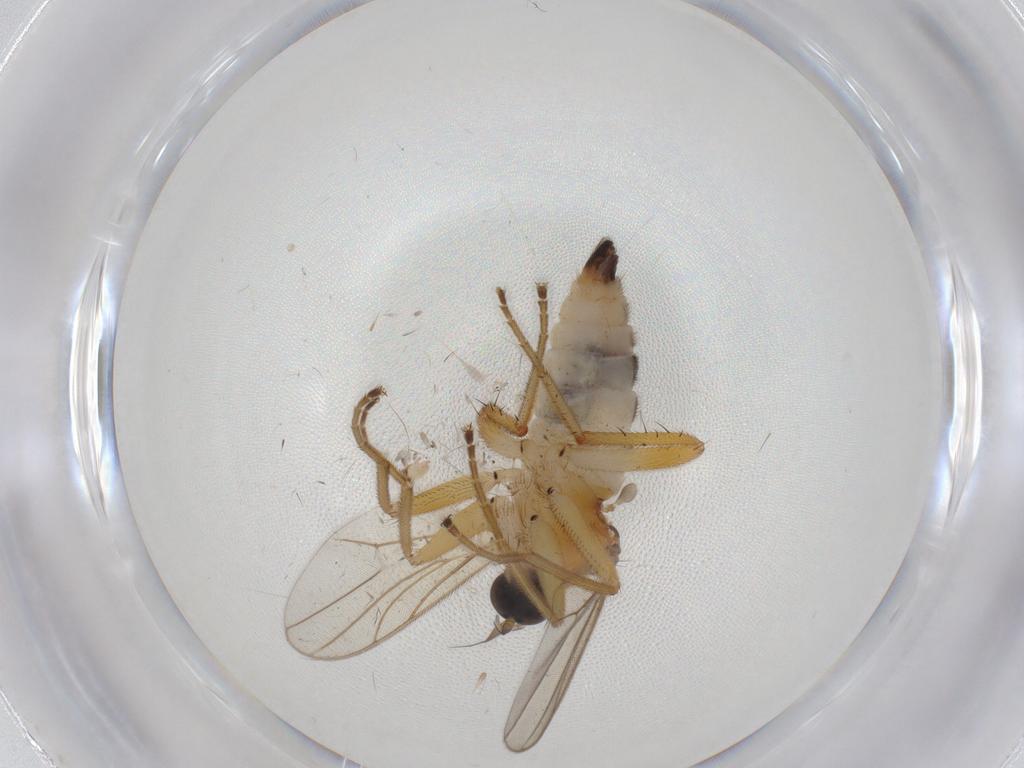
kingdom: Animalia
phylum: Arthropoda
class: Insecta
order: Diptera
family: Hybotidae
